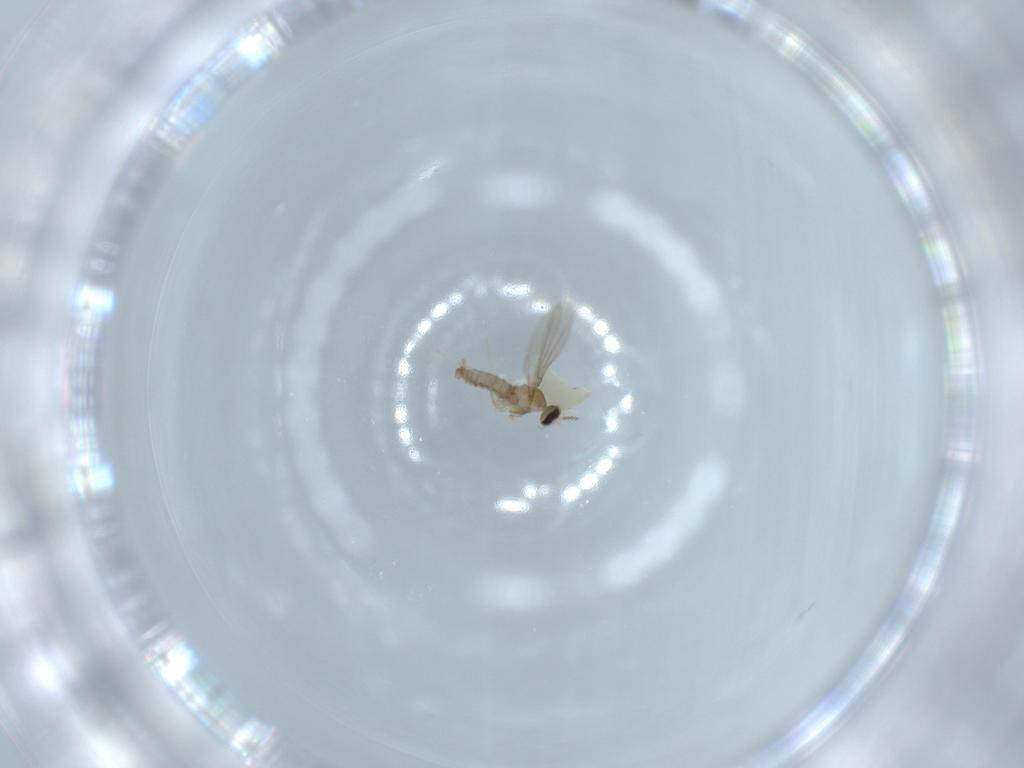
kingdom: Animalia
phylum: Arthropoda
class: Insecta
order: Diptera
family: Cecidomyiidae
